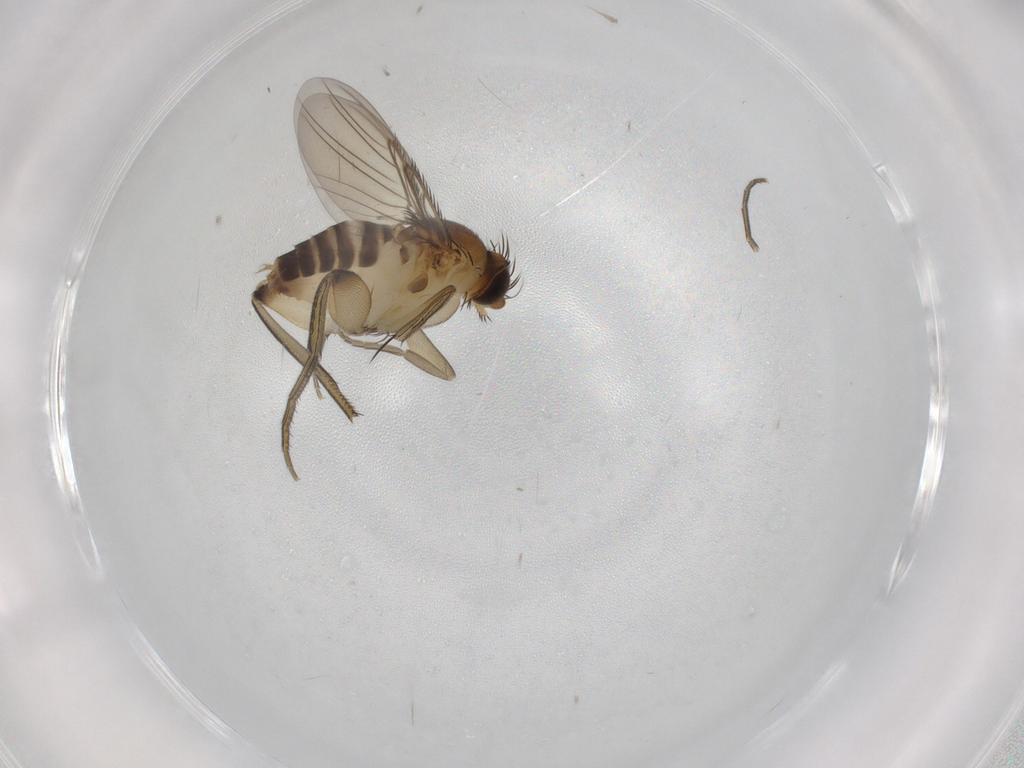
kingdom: Animalia
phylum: Arthropoda
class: Insecta
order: Diptera
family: Phoridae
